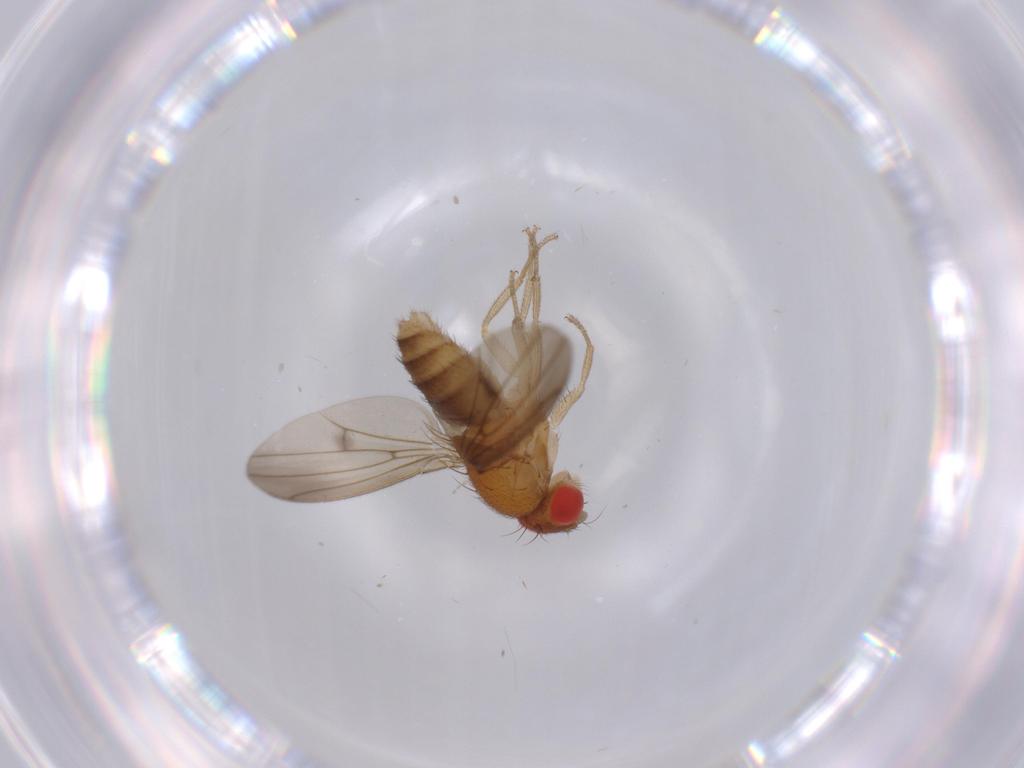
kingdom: Animalia
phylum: Arthropoda
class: Insecta
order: Diptera
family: Drosophilidae
